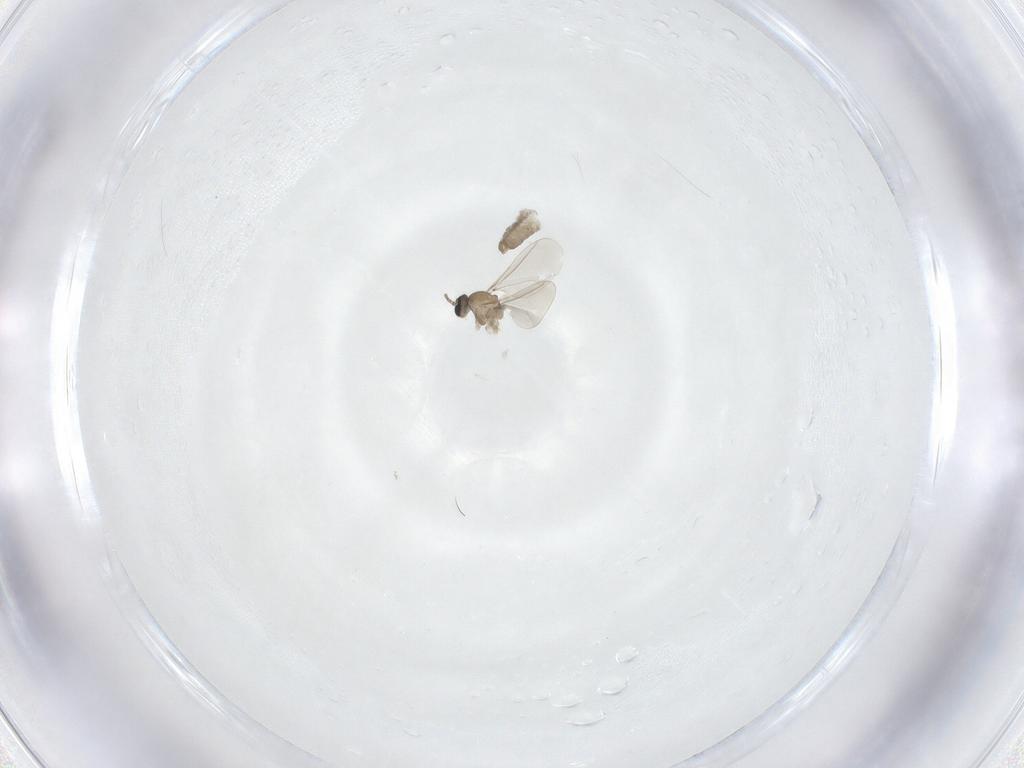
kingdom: Animalia
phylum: Arthropoda
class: Insecta
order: Diptera
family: Cecidomyiidae
